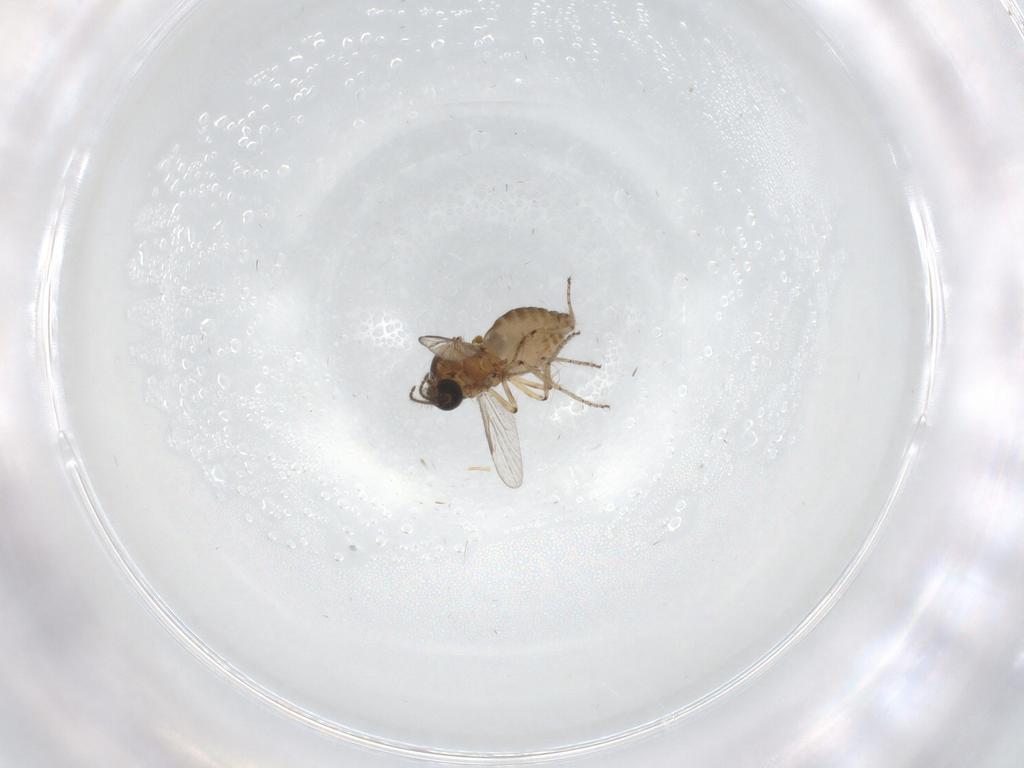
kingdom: Animalia
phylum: Arthropoda
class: Insecta
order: Diptera
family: Ceratopogonidae
